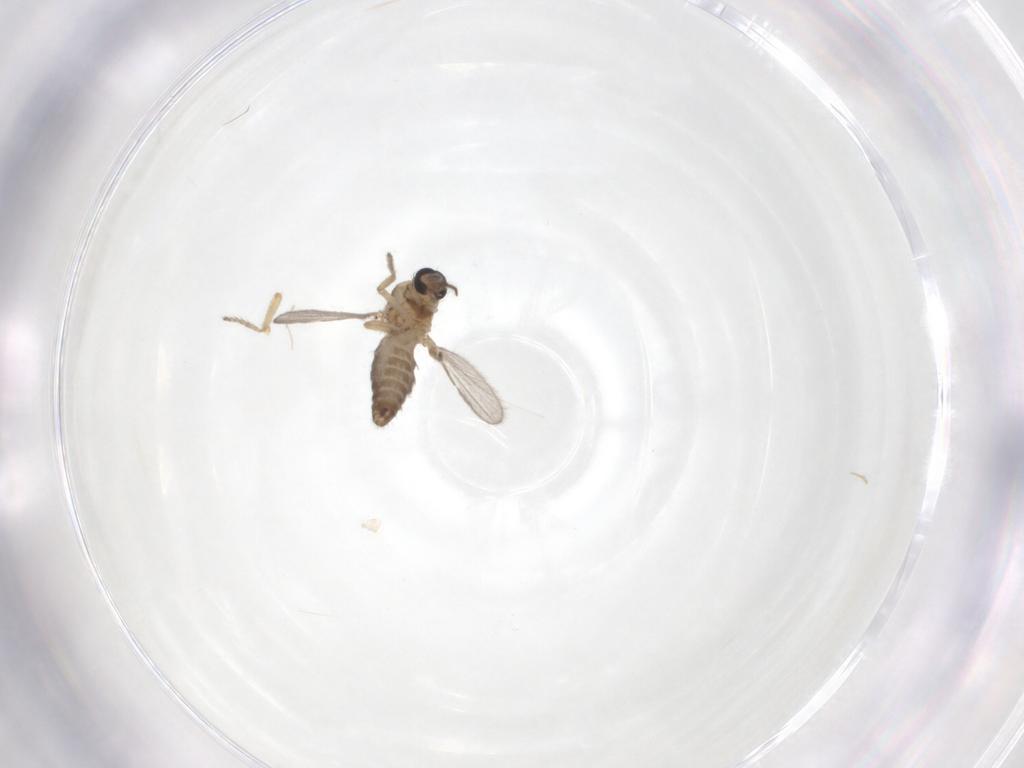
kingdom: Animalia
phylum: Arthropoda
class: Insecta
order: Diptera
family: Ceratopogonidae
